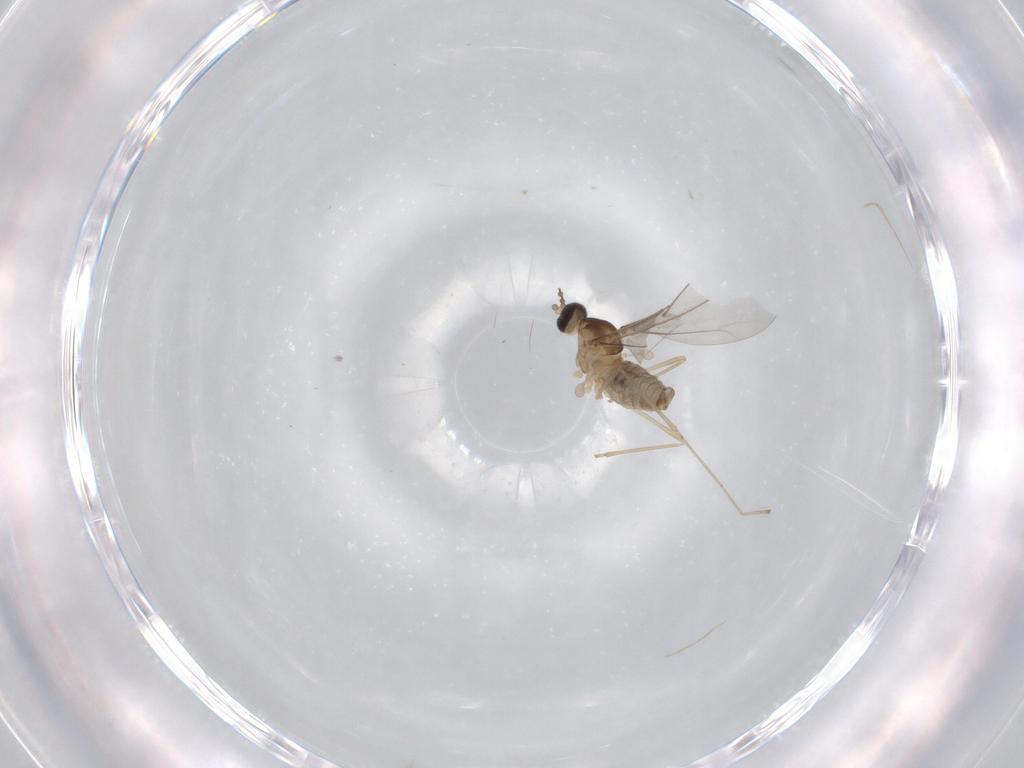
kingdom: Animalia
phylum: Arthropoda
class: Insecta
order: Diptera
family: Cecidomyiidae
